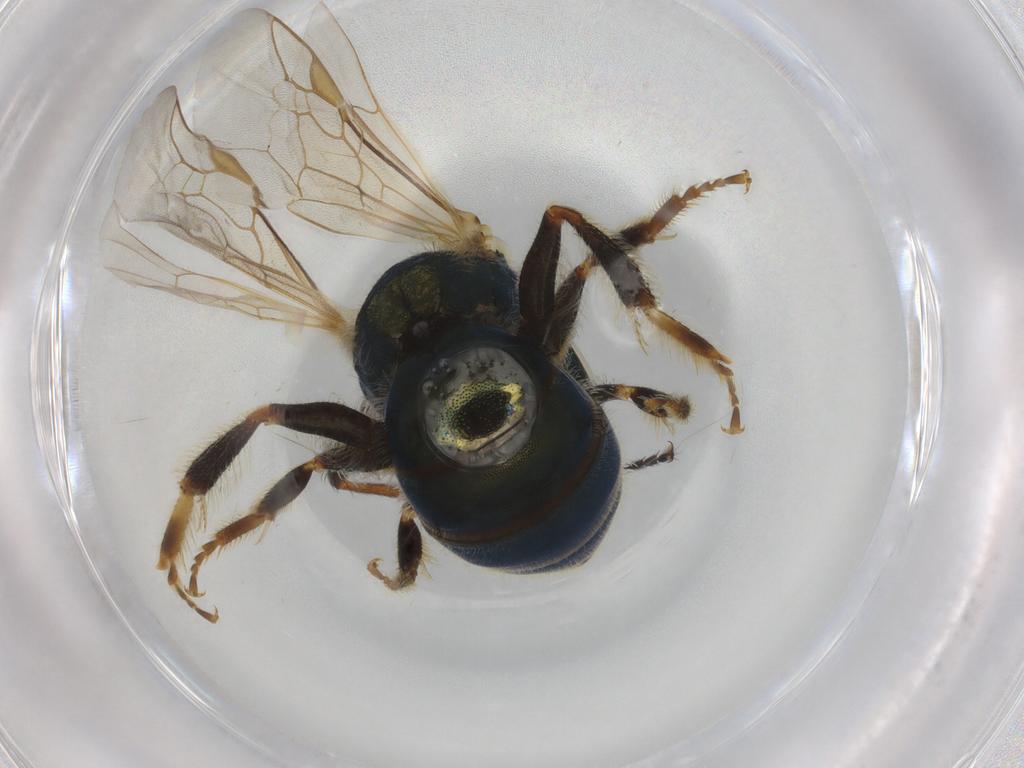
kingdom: Animalia
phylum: Arthropoda
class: Insecta
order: Hymenoptera
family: Halictidae
